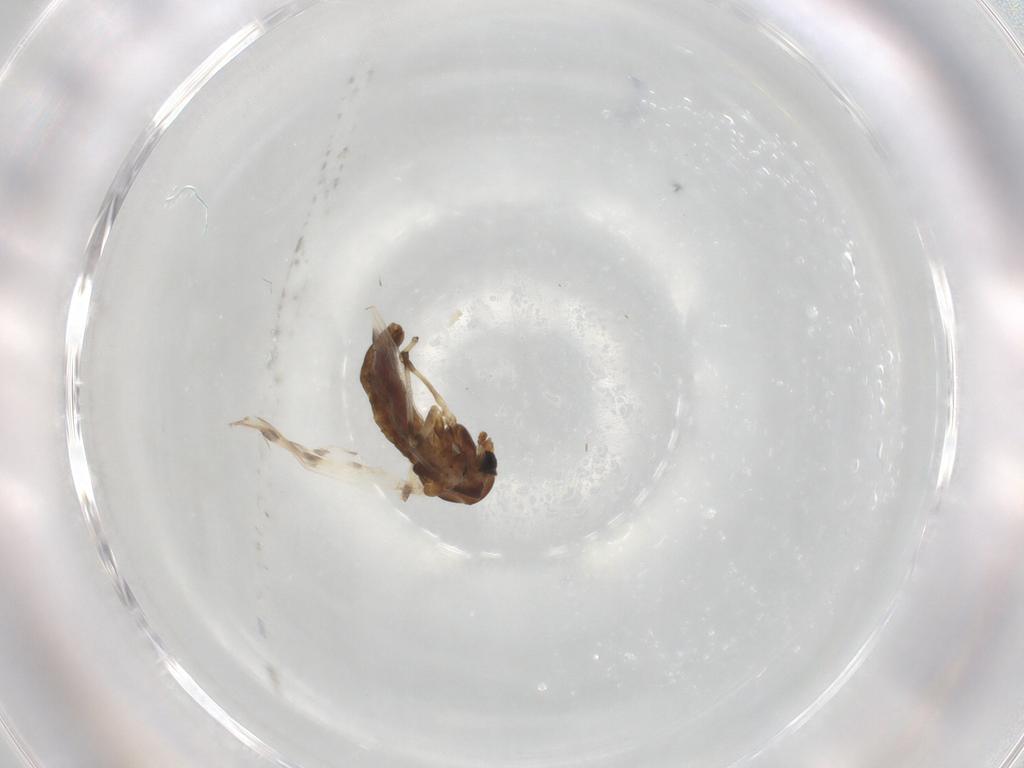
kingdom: Animalia
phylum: Arthropoda
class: Insecta
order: Diptera
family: Chironomidae
